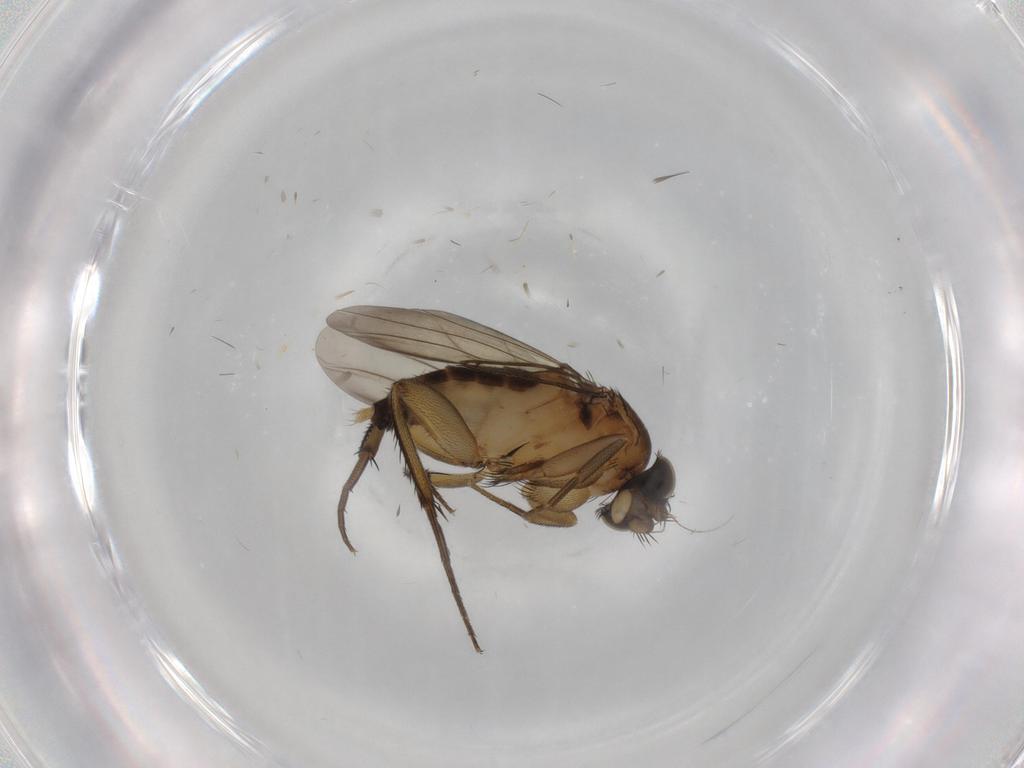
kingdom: Animalia
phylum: Arthropoda
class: Insecta
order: Diptera
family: Phoridae
